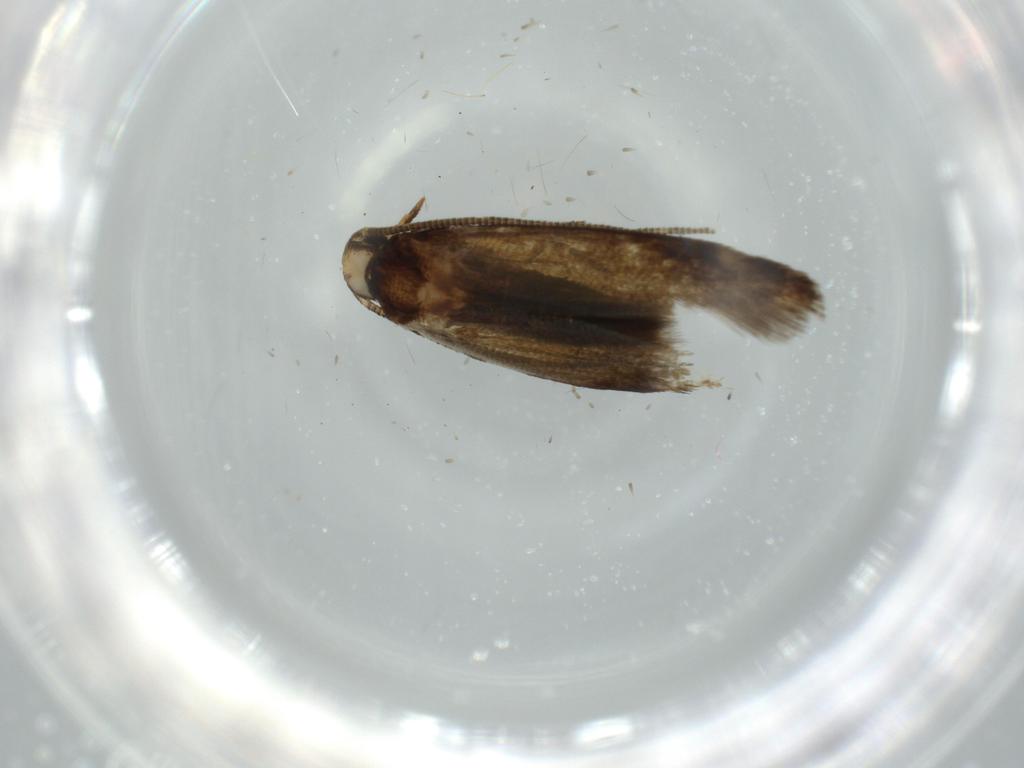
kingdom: Animalia
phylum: Arthropoda
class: Insecta
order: Lepidoptera
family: Tineidae
